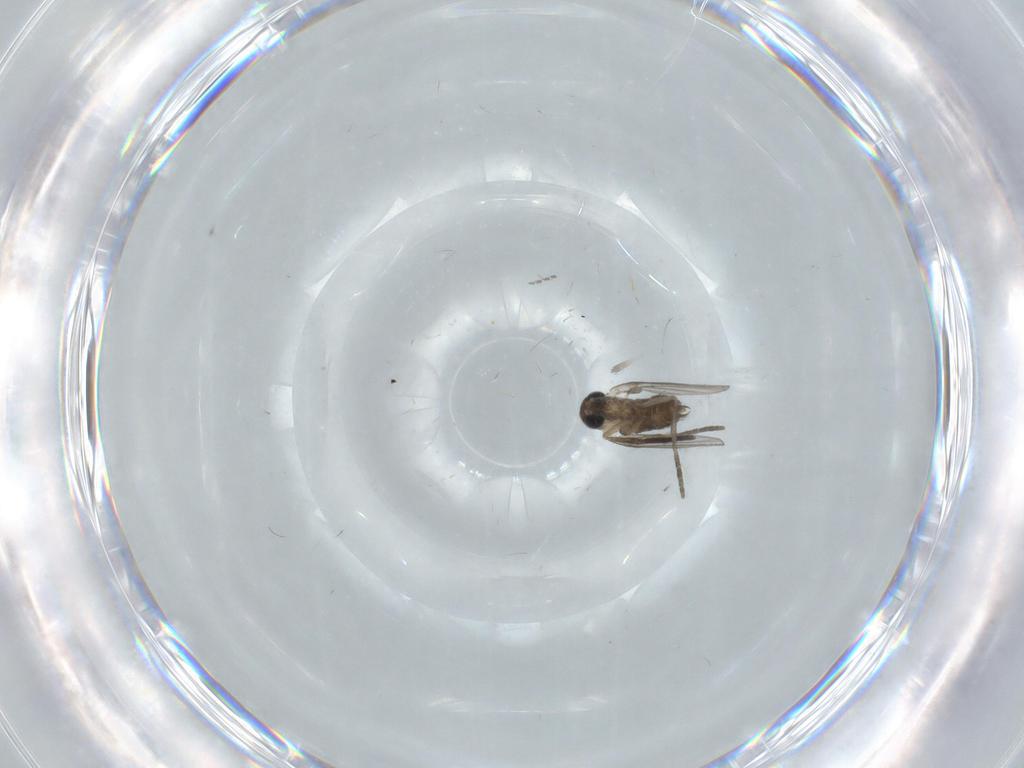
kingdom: Animalia
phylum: Arthropoda
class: Insecta
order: Diptera
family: Psychodidae
